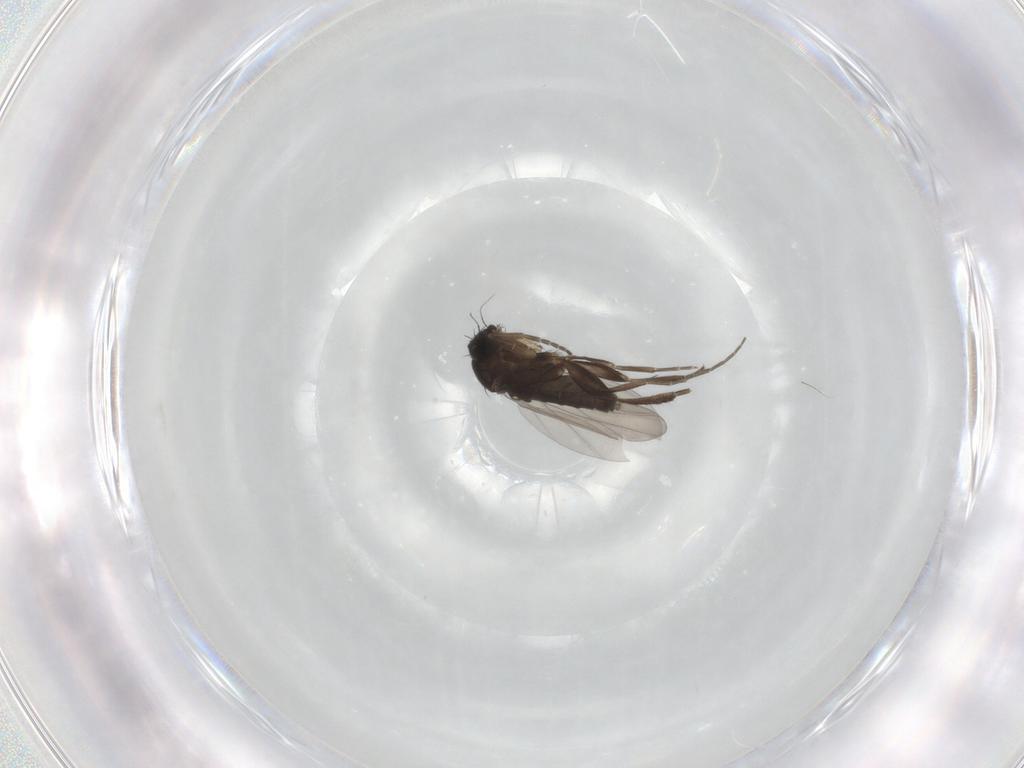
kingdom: Animalia
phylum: Arthropoda
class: Insecta
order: Diptera
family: Phoridae
